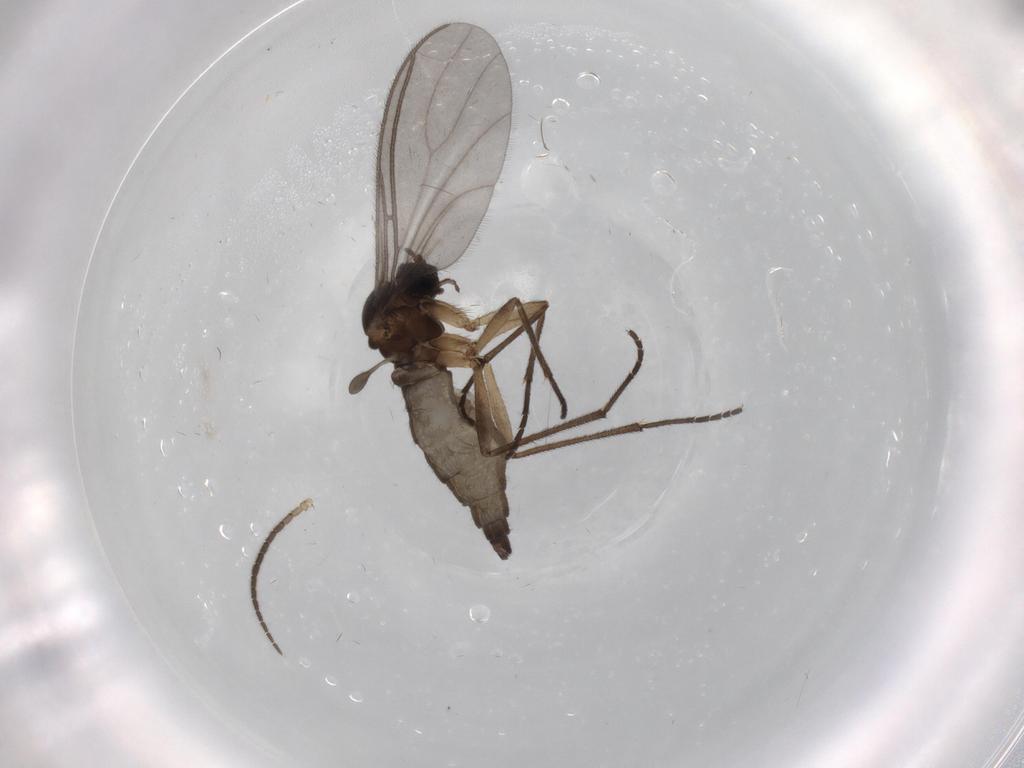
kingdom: Animalia
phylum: Arthropoda
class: Insecta
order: Diptera
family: Sciaridae
